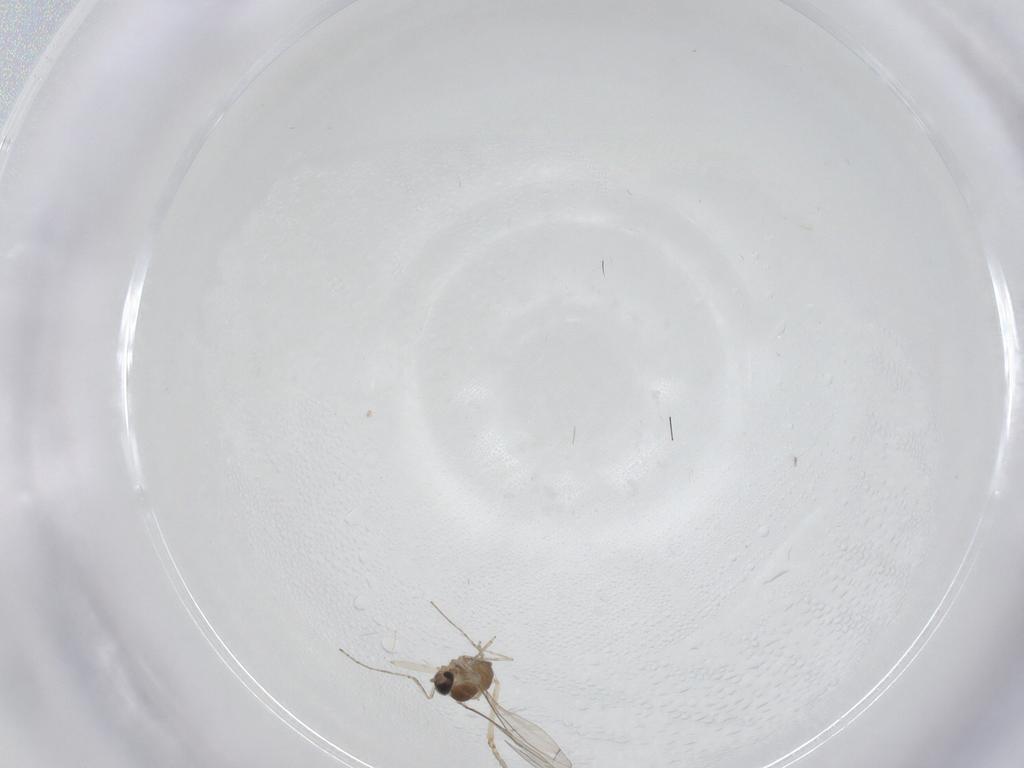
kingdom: Animalia
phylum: Arthropoda
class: Insecta
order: Diptera
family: Cecidomyiidae
